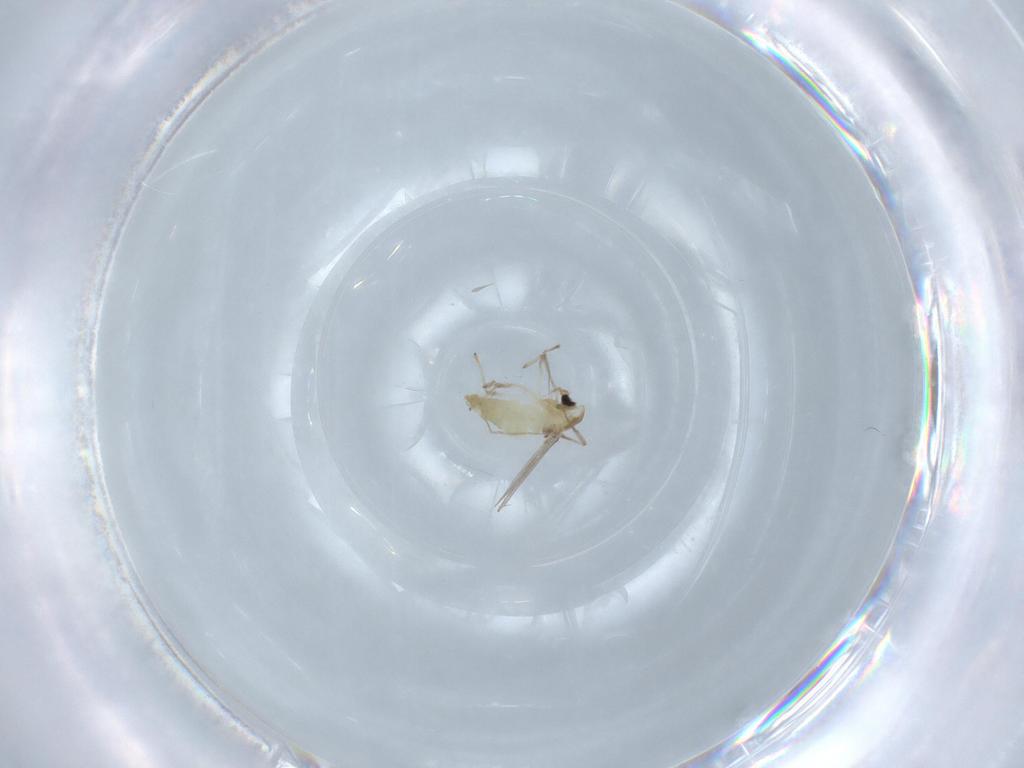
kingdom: Animalia
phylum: Arthropoda
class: Insecta
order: Diptera
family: Chironomidae
